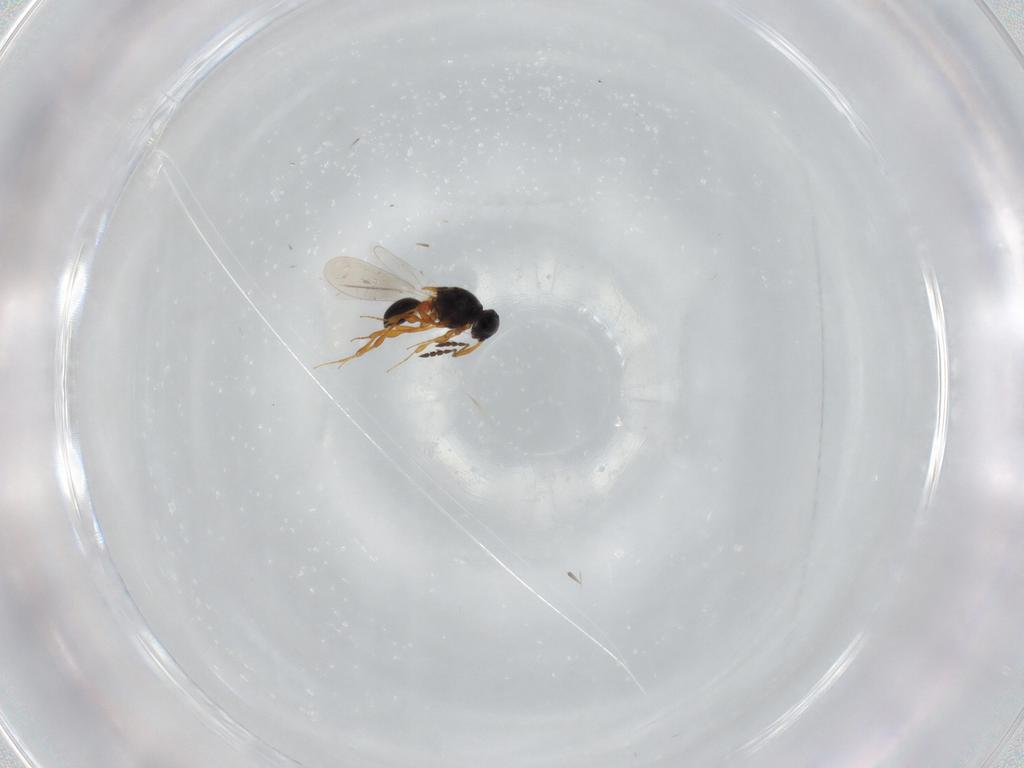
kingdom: Animalia
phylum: Arthropoda
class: Insecta
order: Hymenoptera
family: Platygastridae
